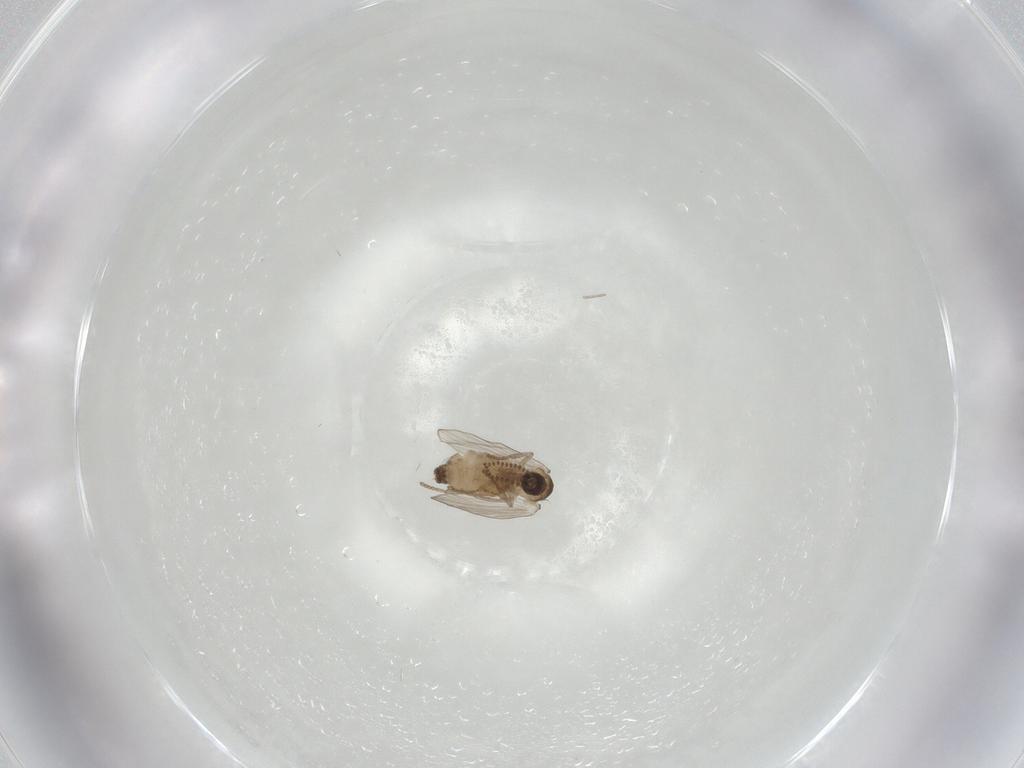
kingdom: Animalia
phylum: Arthropoda
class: Insecta
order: Diptera
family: Psychodidae
